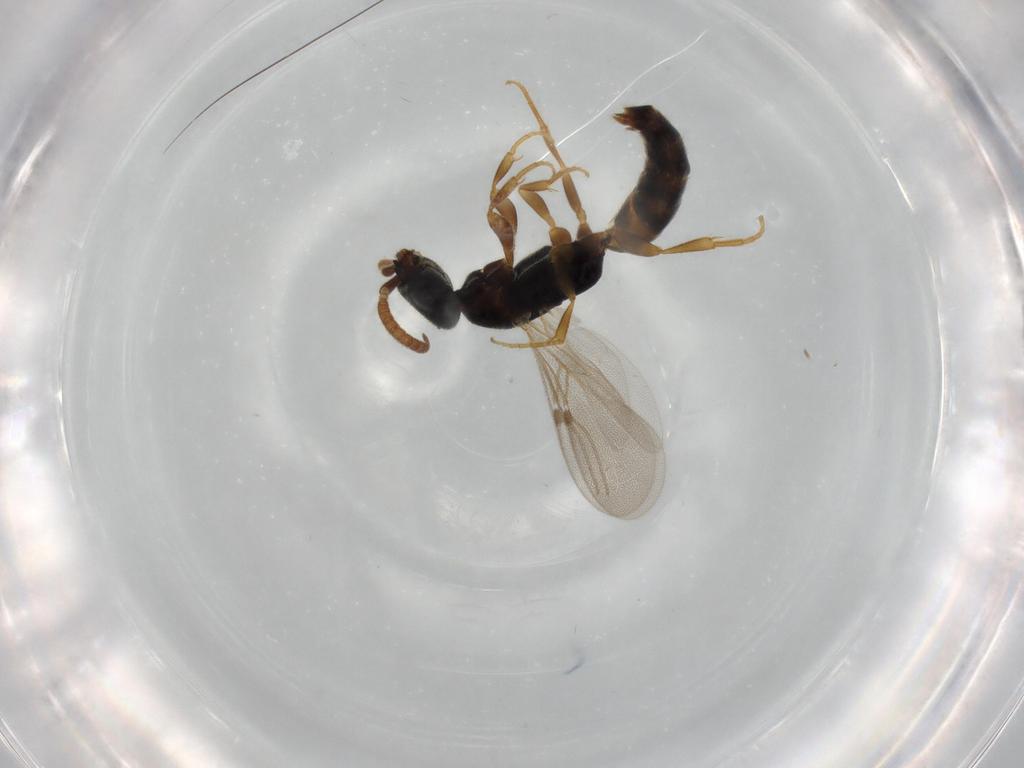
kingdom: Animalia
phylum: Arthropoda
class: Insecta
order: Hymenoptera
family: Bethylidae
